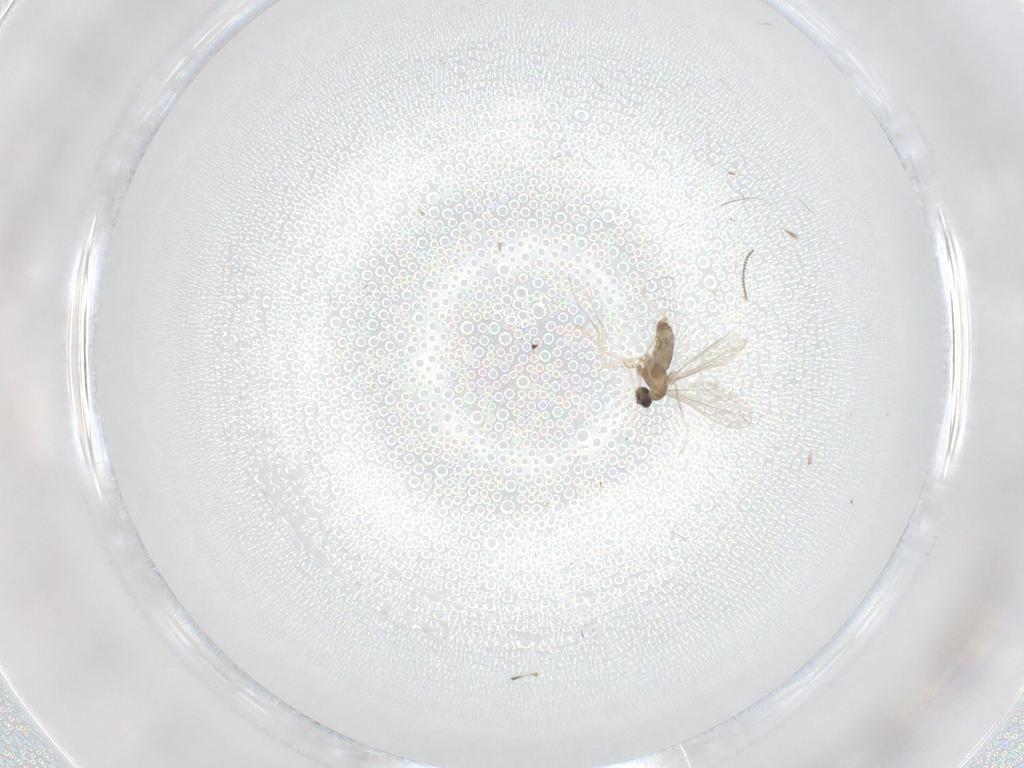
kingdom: Animalia
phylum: Arthropoda
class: Insecta
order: Diptera
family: Cecidomyiidae
